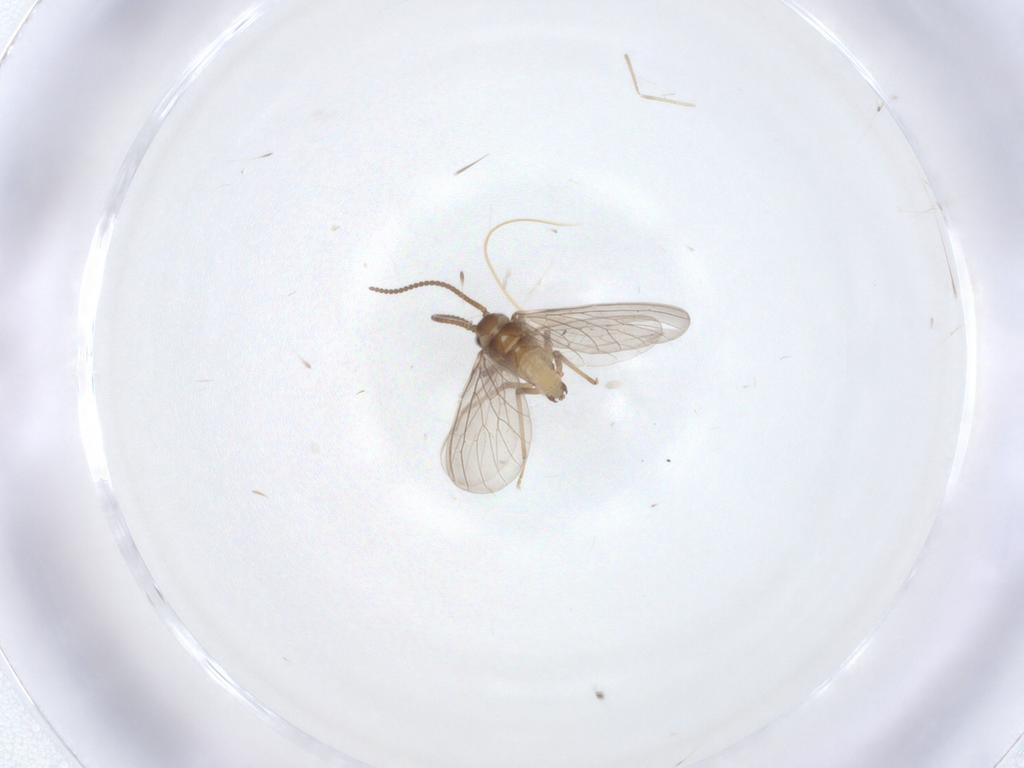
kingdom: Animalia
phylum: Arthropoda
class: Insecta
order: Neuroptera
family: Coniopterygidae
